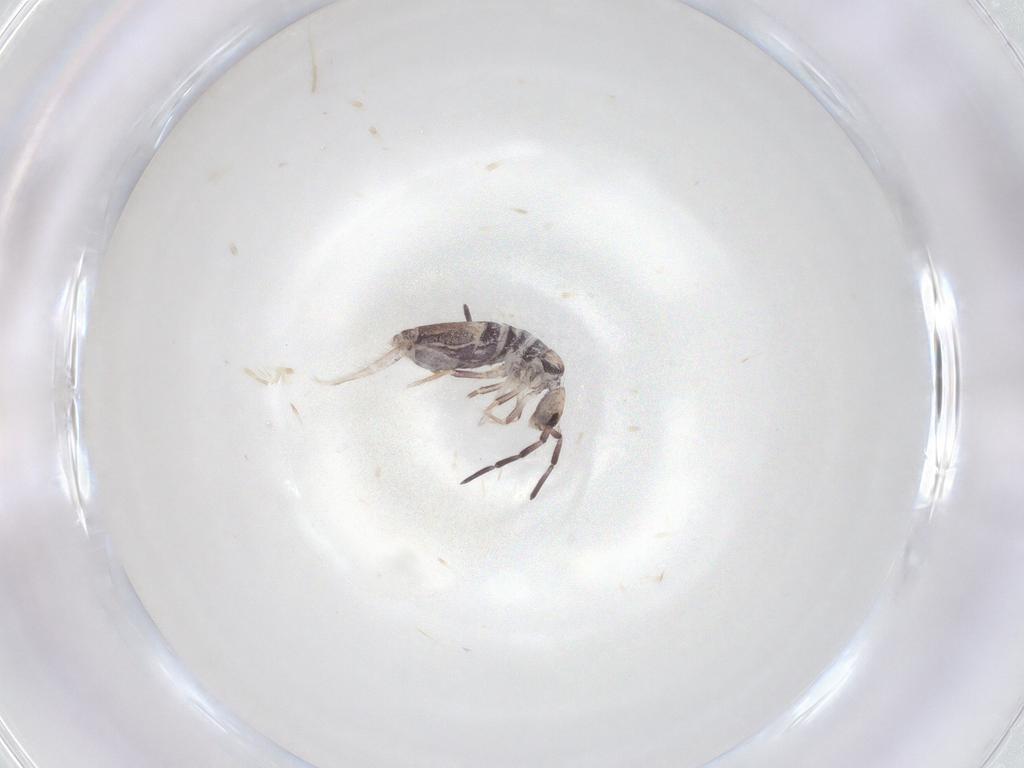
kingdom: Animalia
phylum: Arthropoda
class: Collembola
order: Entomobryomorpha
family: Entomobryidae
